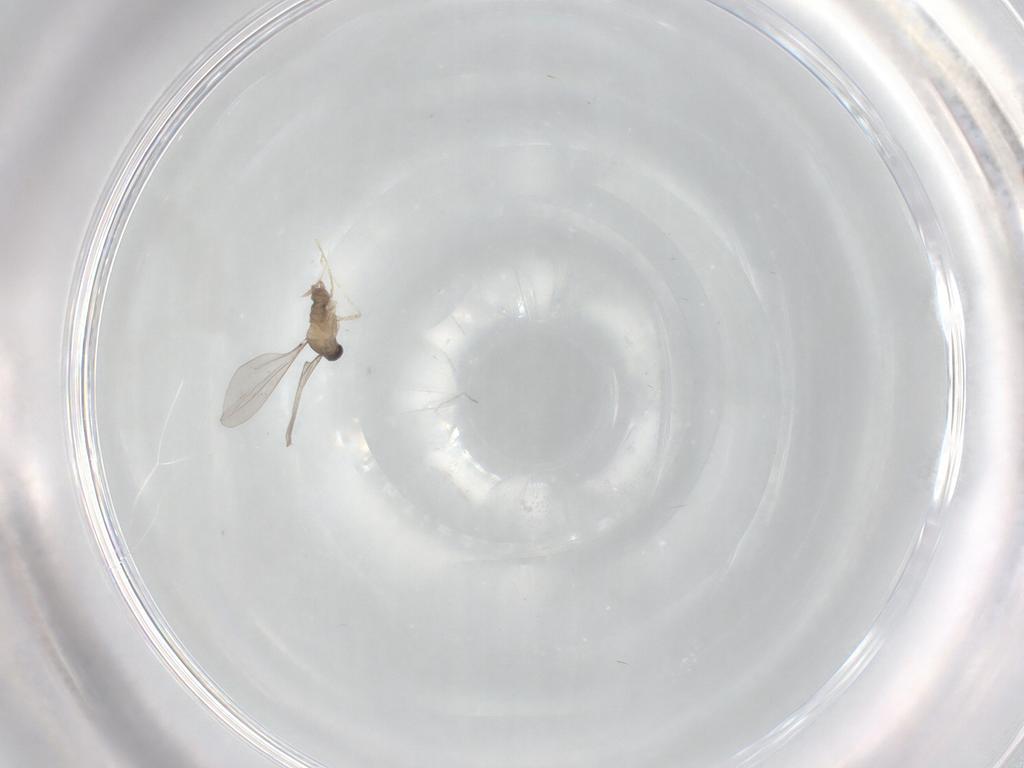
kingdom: Animalia
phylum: Arthropoda
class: Insecta
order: Diptera
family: Cecidomyiidae
